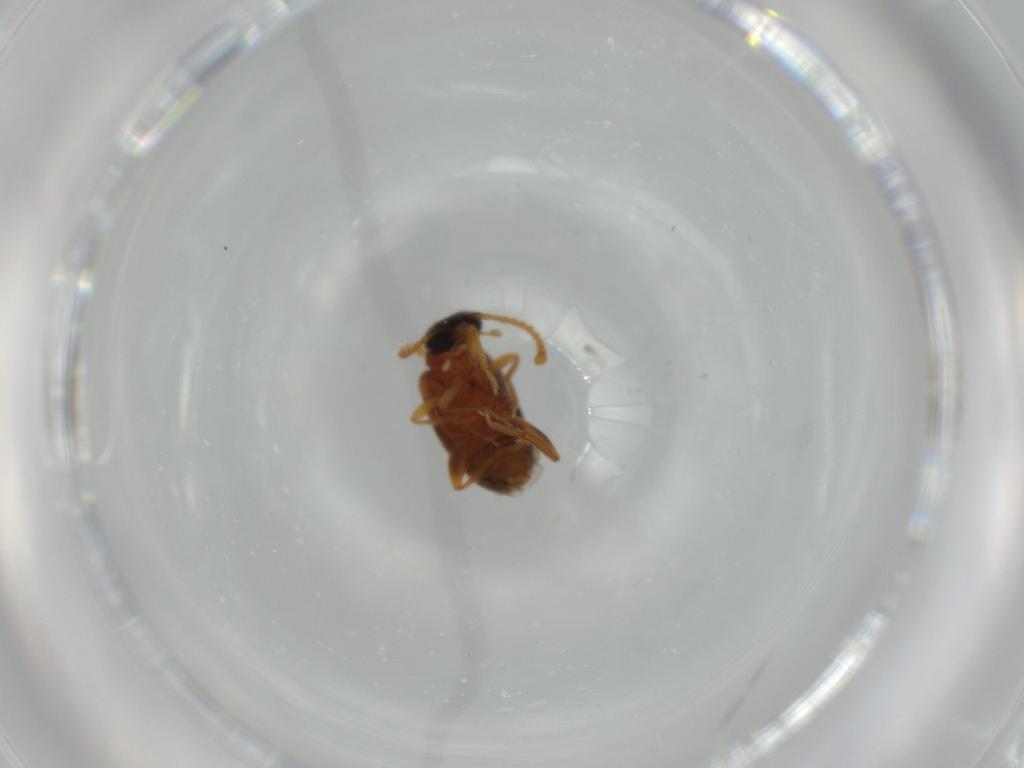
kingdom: Animalia
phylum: Arthropoda
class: Insecta
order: Coleoptera
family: Aderidae
